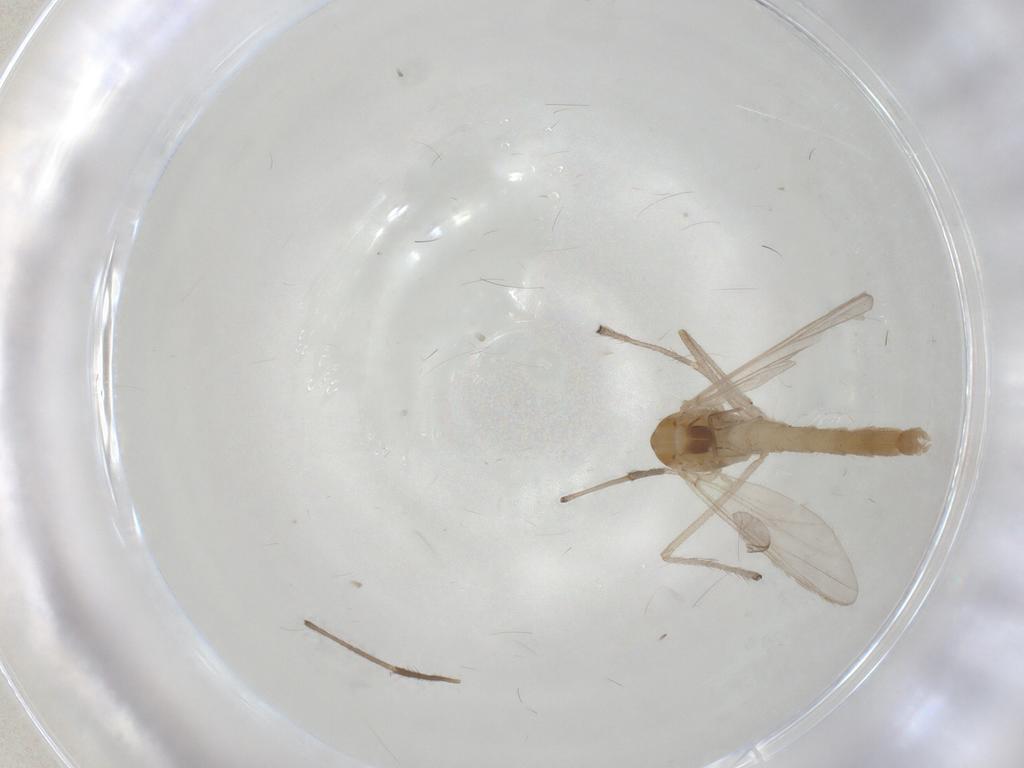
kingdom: Animalia
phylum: Arthropoda
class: Insecta
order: Diptera
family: Chironomidae
